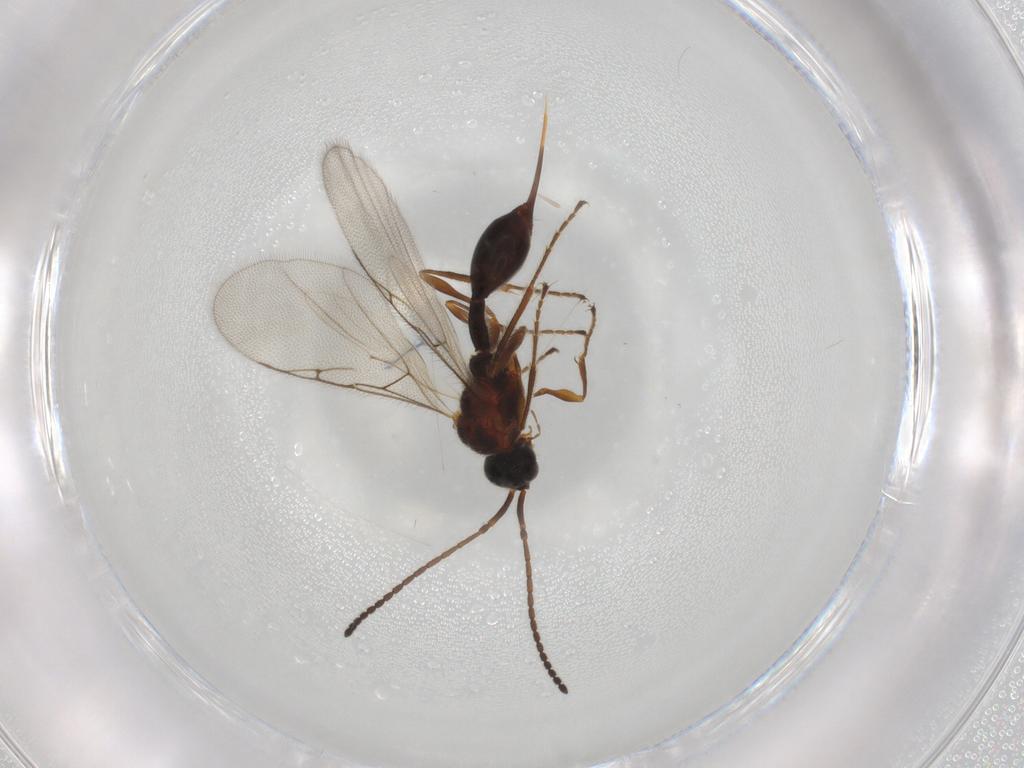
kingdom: Animalia
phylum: Arthropoda
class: Insecta
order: Hymenoptera
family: Diapriidae
